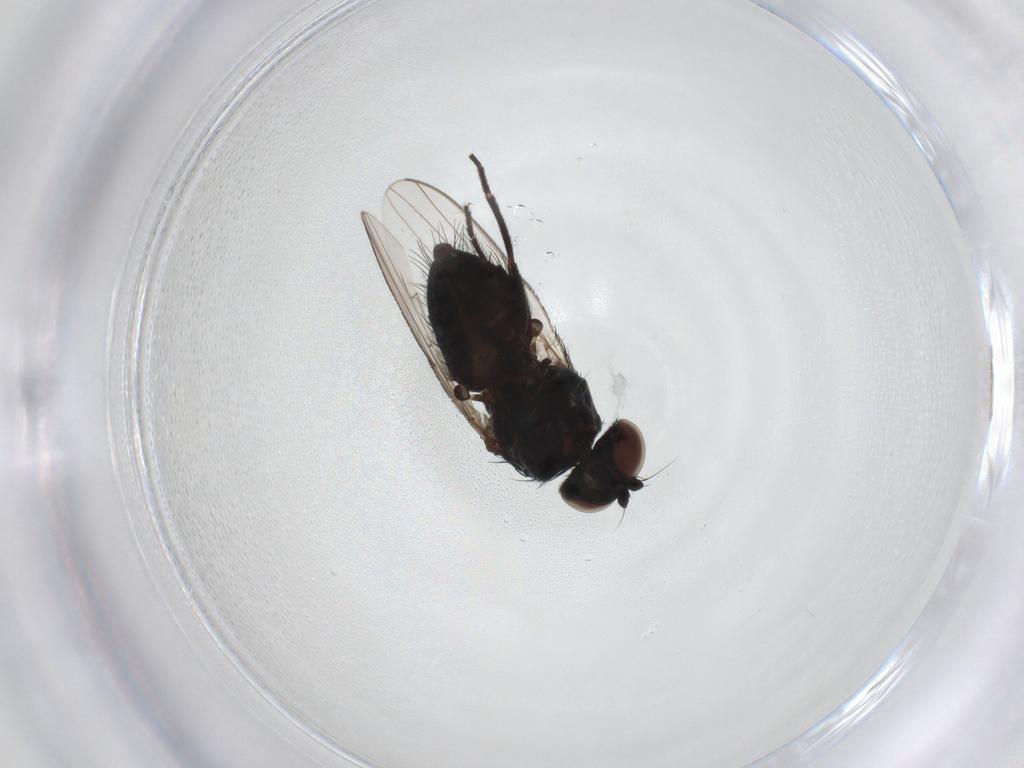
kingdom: Animalia
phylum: Arthropoda
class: Insecta
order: Diptera
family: Chloropidae
